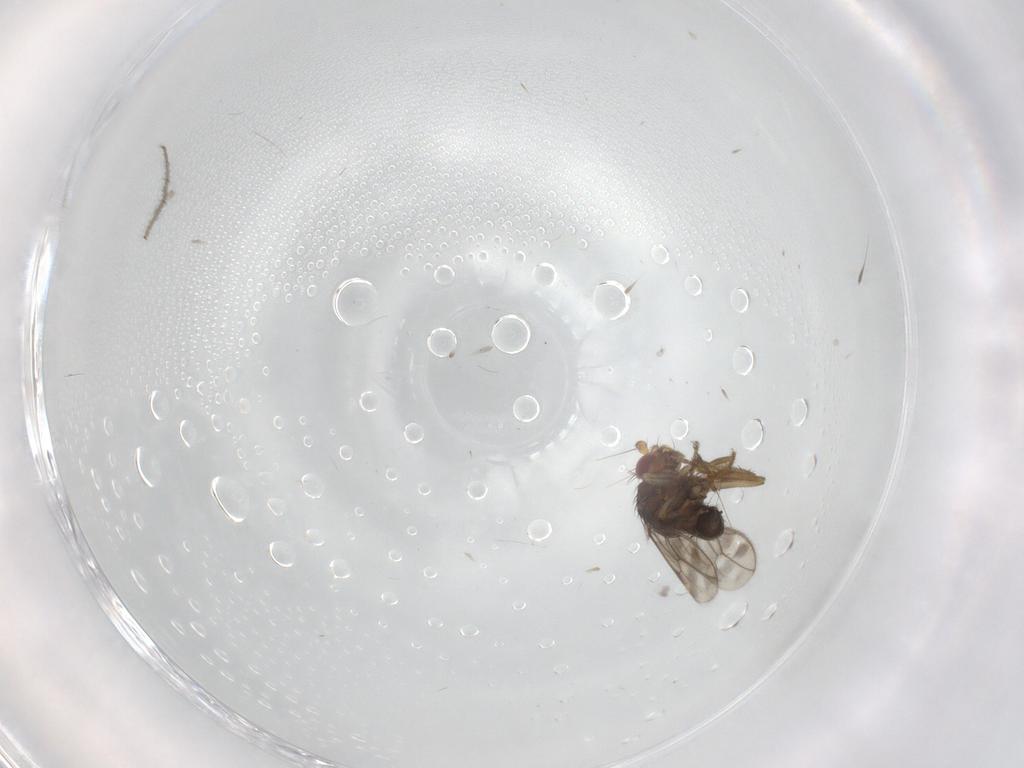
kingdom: Animalia
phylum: Arthropoda
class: Insecta
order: Diptera
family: Sphaeroceridae
